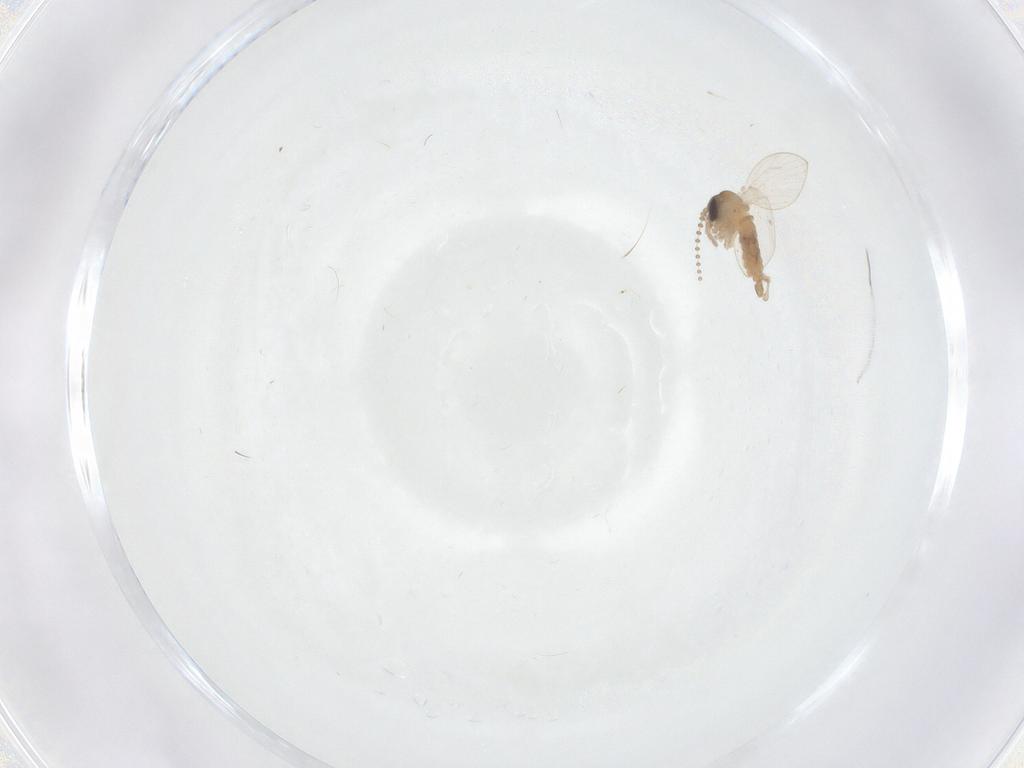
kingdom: Animalia
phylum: Arthropoda
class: Insecta
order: Diptera
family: Psychodidae
